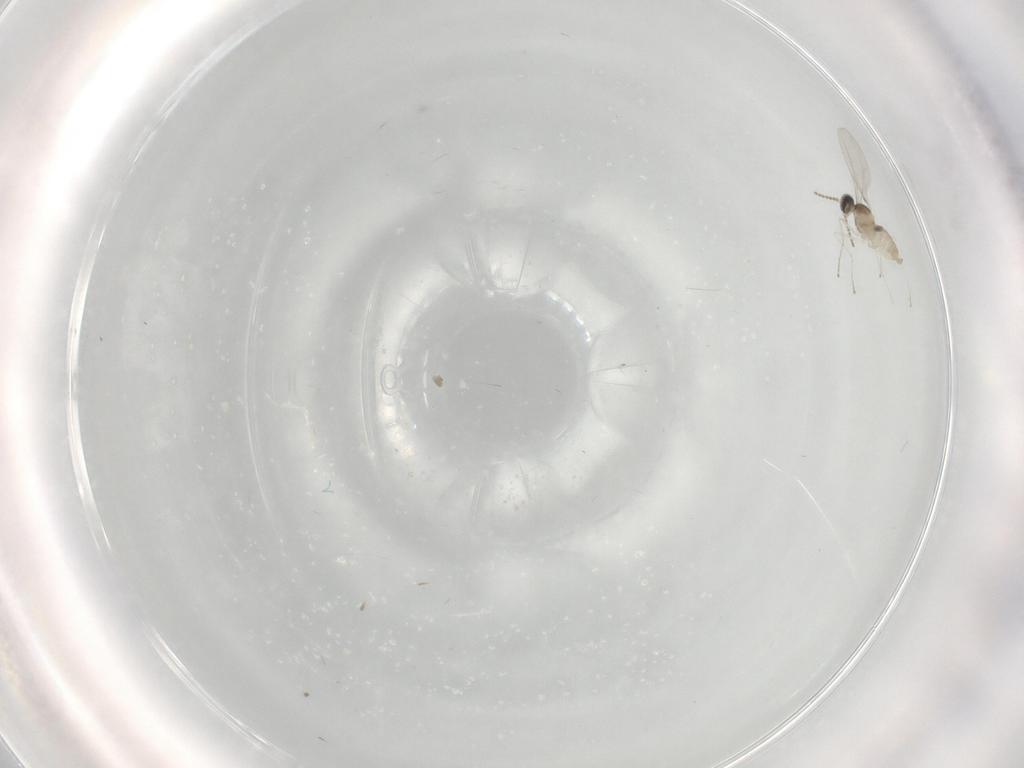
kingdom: Animalia
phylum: Arthropoda
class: Insecta
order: Diptera
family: Cecidomyiidae
